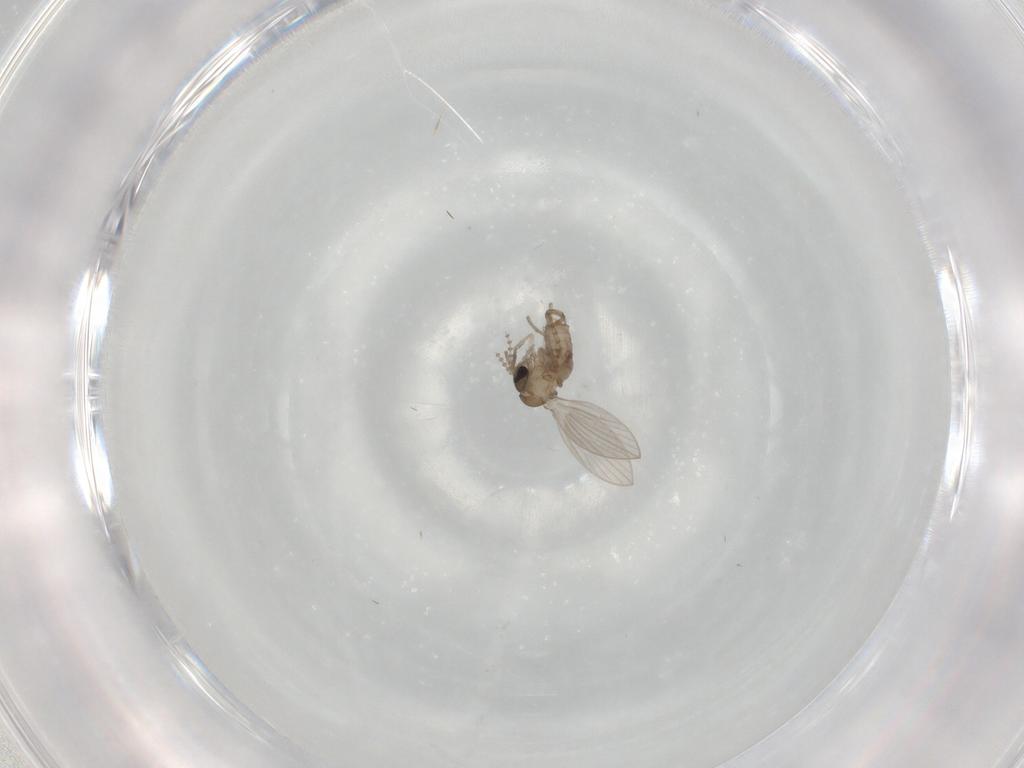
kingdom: Animalia
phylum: Arthropoda
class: Insecta
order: Diptera
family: Psychodidae
